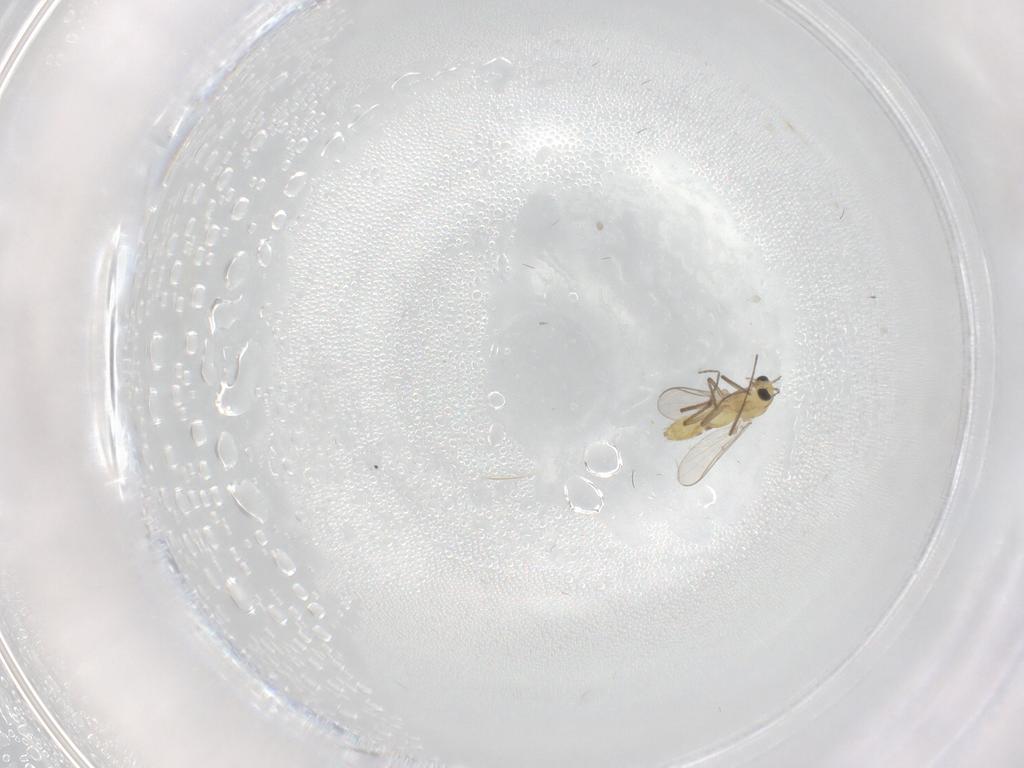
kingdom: Animalia
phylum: Arthropoda
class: Insecta
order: Diptera
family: Chironomidae
